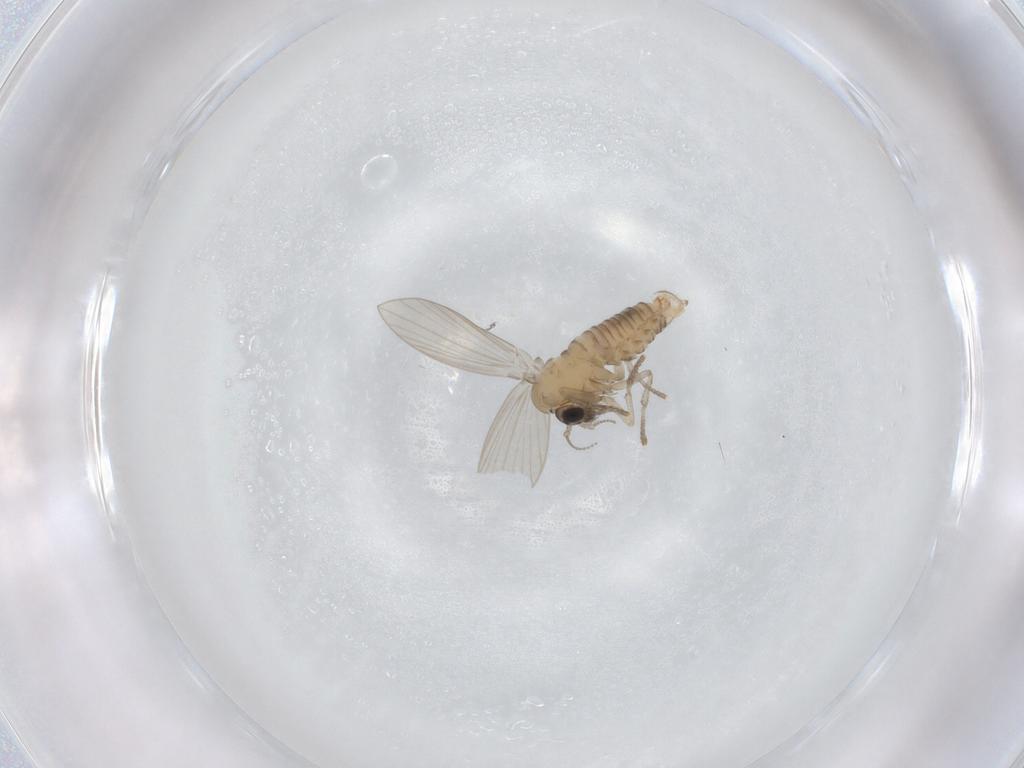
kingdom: Animalia
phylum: Arthropoda
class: Insecta
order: Diptera
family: Psychodidae
